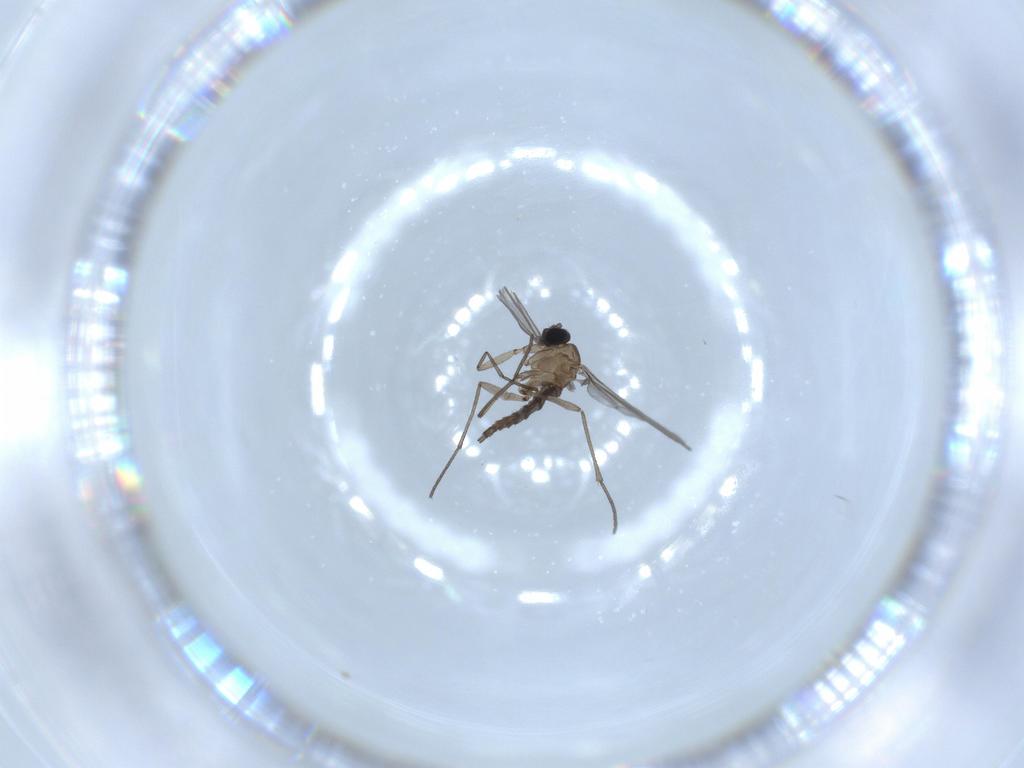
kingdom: Animalia
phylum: Arthropoda
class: Insecta
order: Diptera
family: Sciaridae
